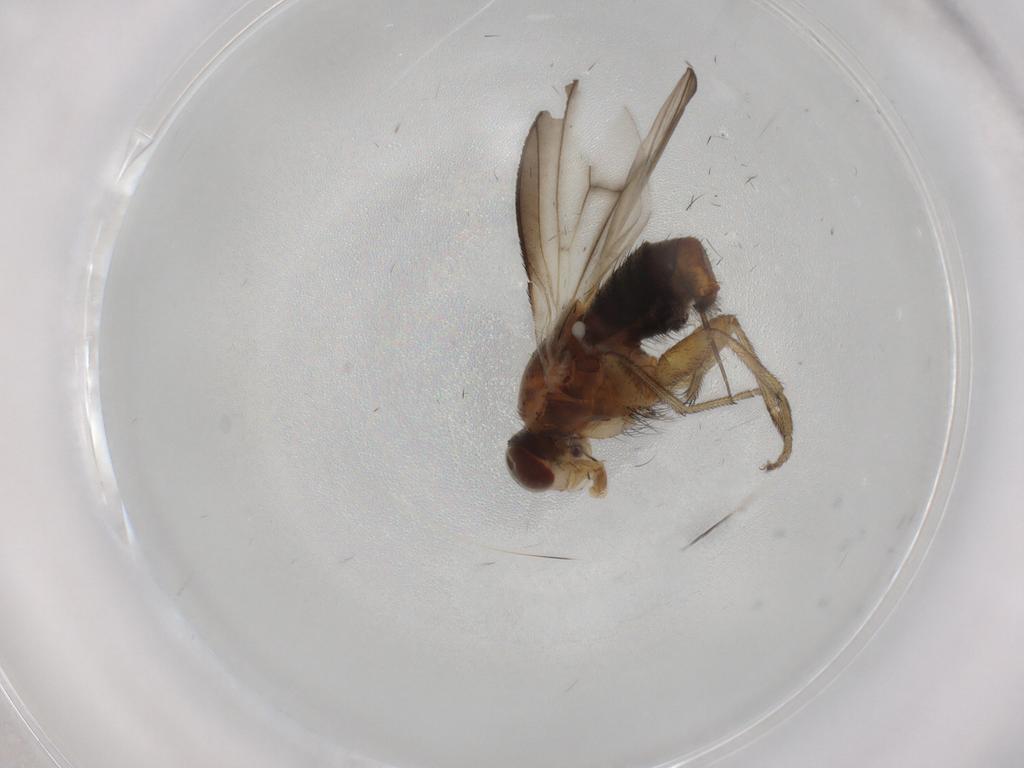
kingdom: Animalia
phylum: Arthropoda
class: Insecta
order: Diptera
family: Heleomyzidae
